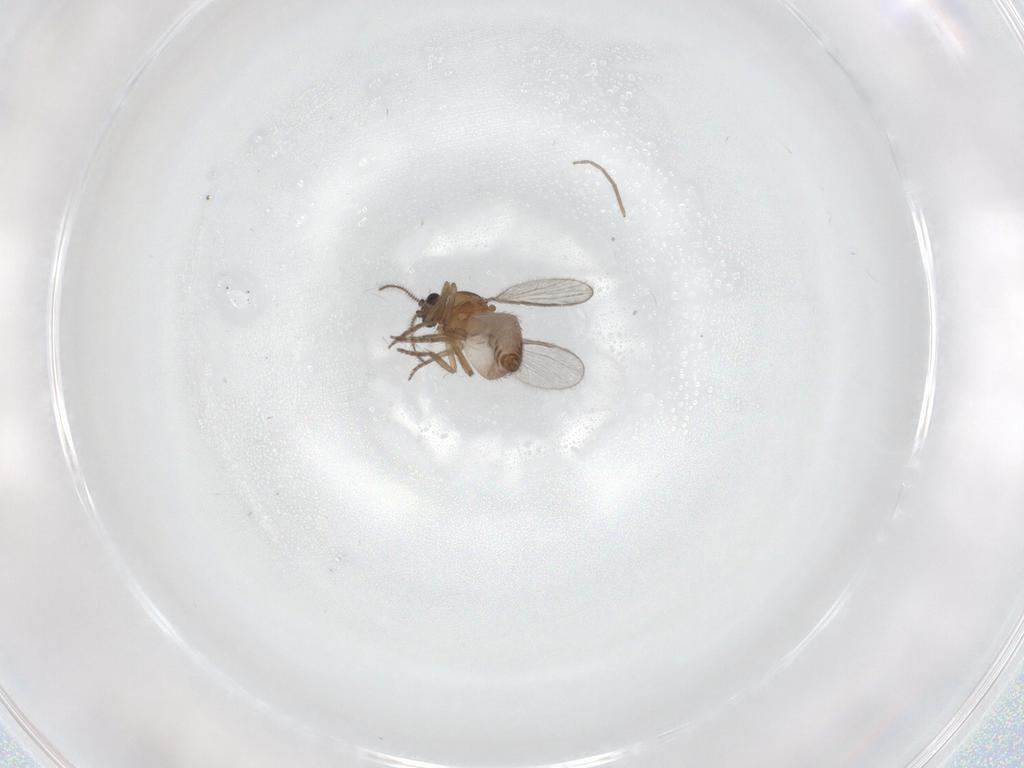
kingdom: Animalia
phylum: Arthropoda
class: Insecta
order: Diptera
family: Chironomidae
